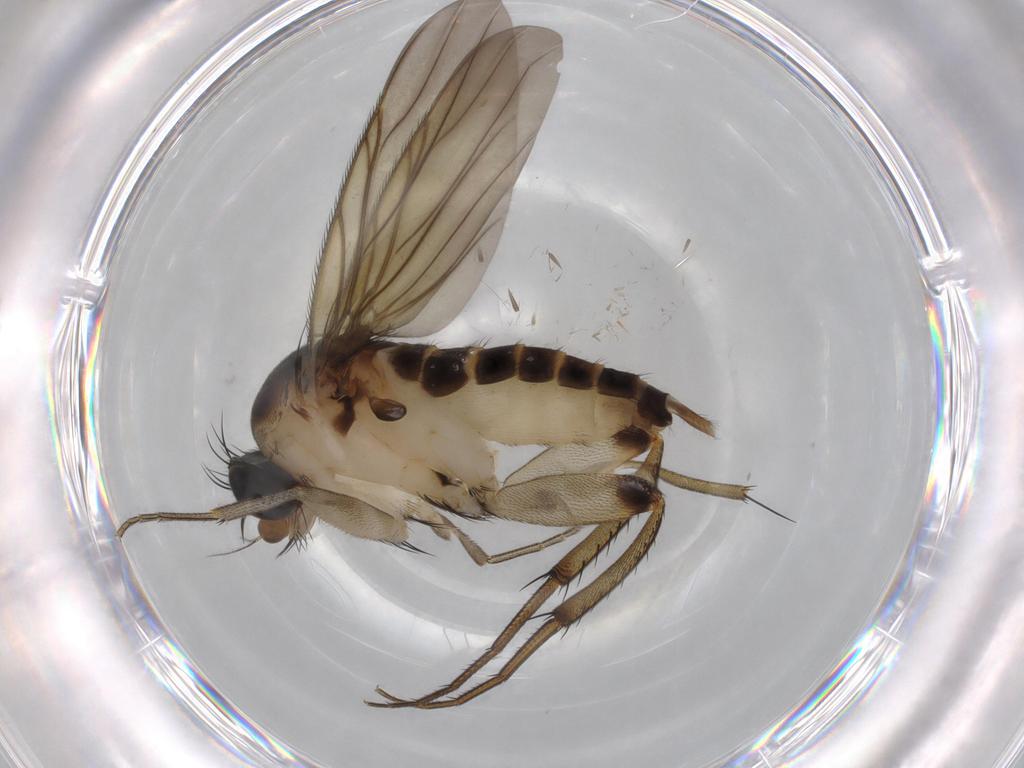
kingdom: Animalia
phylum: Arthropoda
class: Insecta
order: Diptera
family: Phoridae
